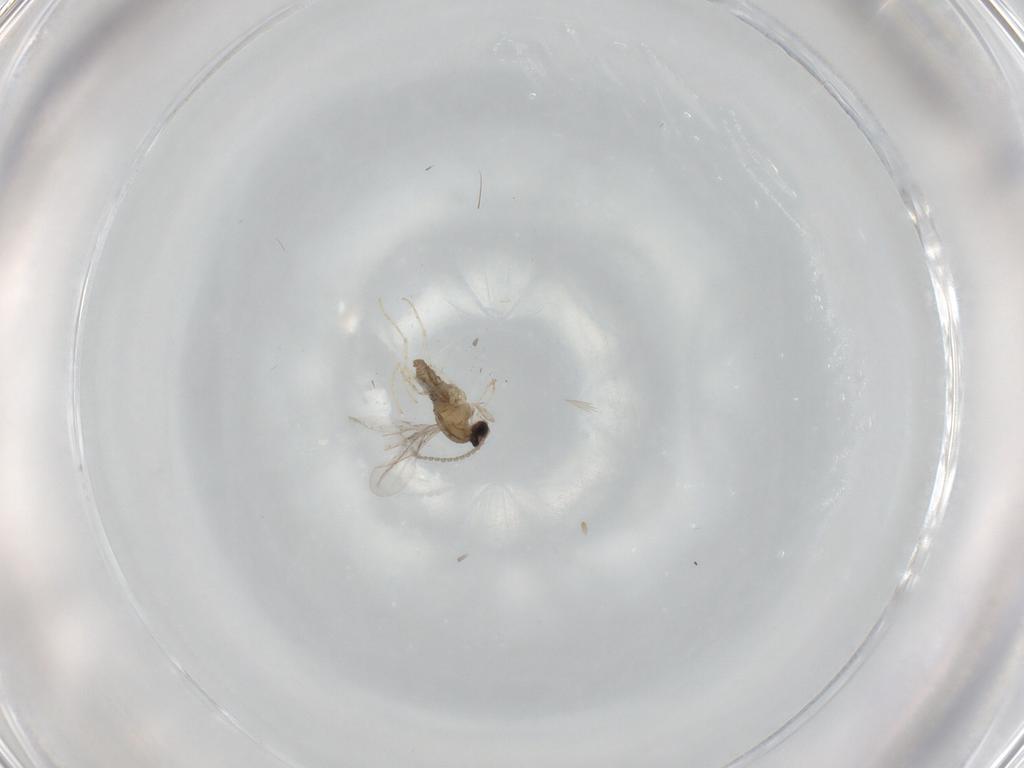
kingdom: Animalia
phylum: Arthropoda
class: Insecta
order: Diptera
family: Cecidomyiidae
